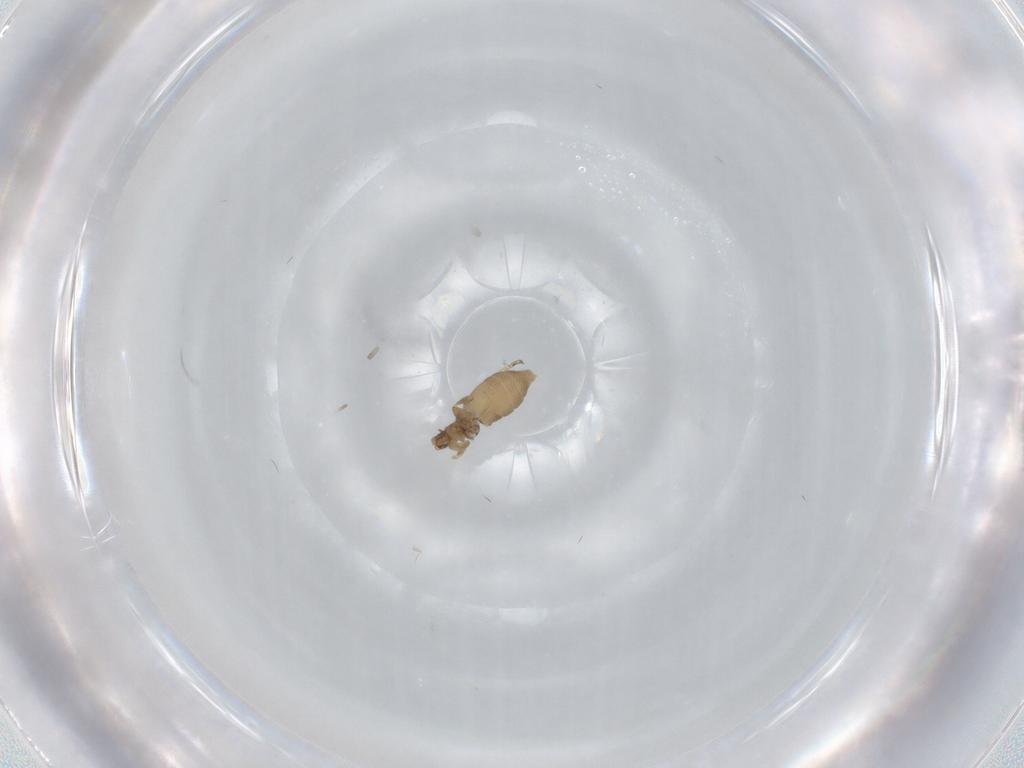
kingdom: Animalia
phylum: Arthropoda
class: Insecta
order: Diptera
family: Phoridae
